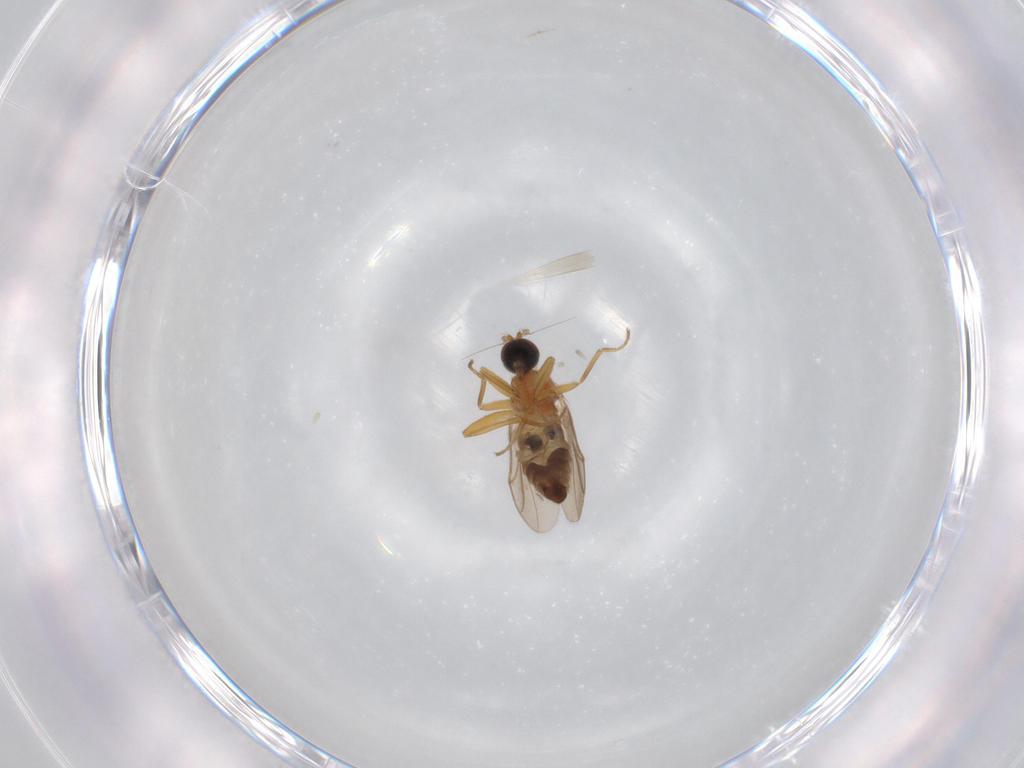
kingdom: Animalia
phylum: Arthropoda
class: Insecta
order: Diptera
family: Hybotidae
